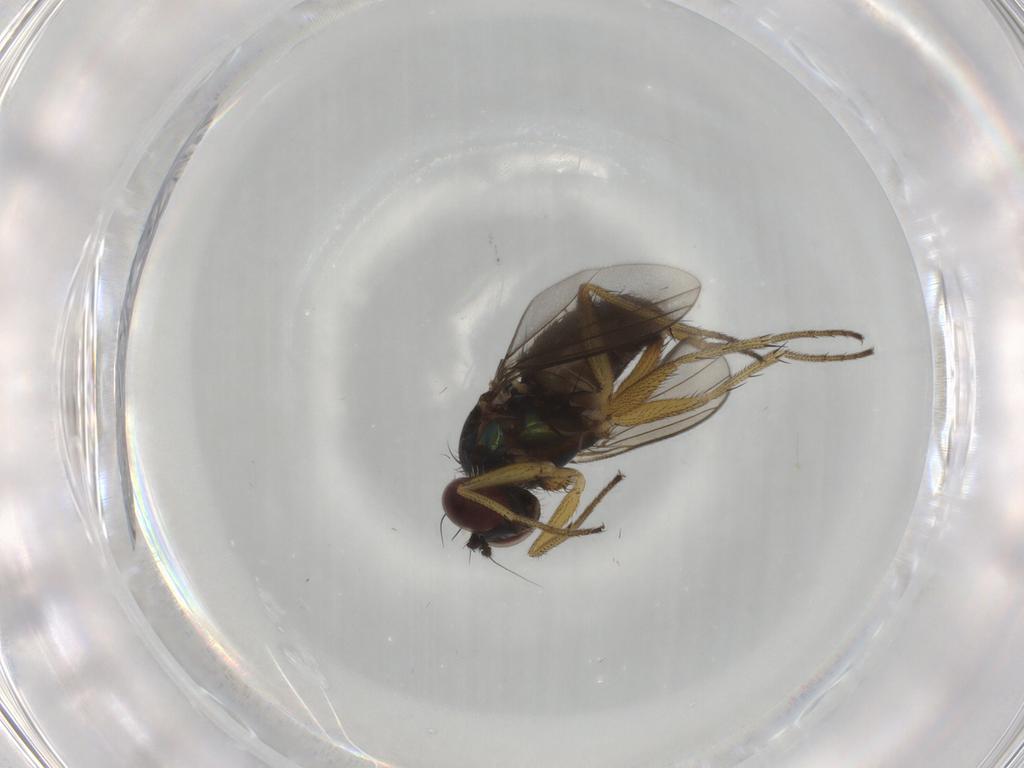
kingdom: Animalia
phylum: Arthropoda
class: Insecta
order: Diptera
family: Dolichopodidae
